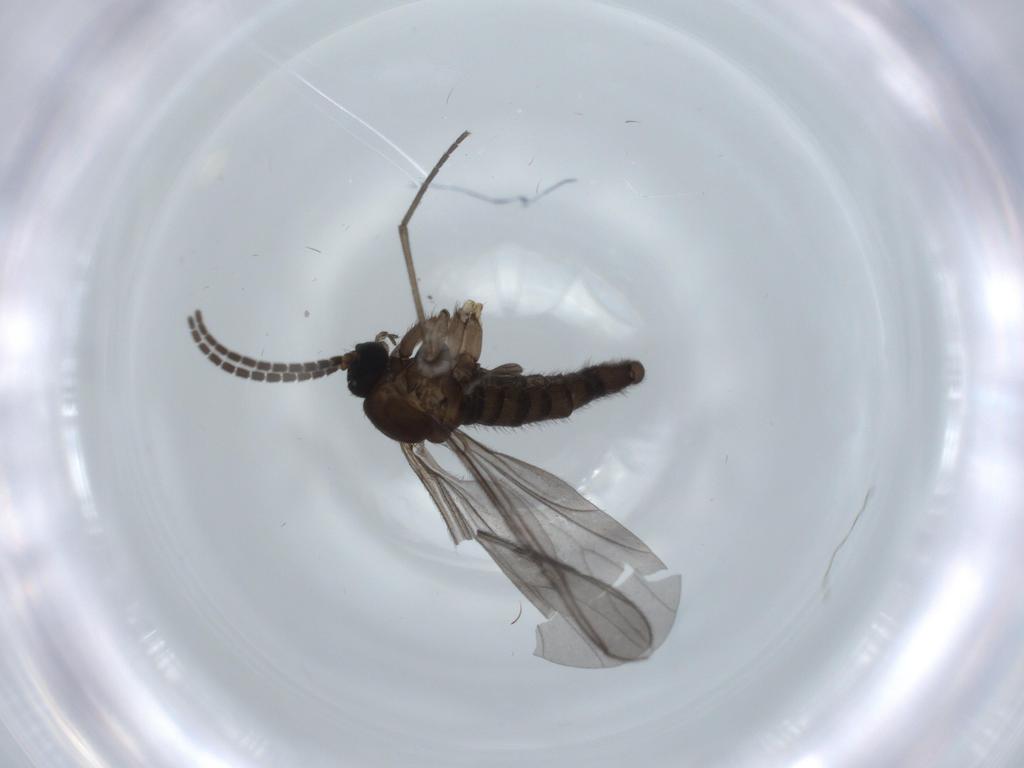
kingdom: Animalia
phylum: Arthropoda
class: Insecta
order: Diptera
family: Sciaridae
